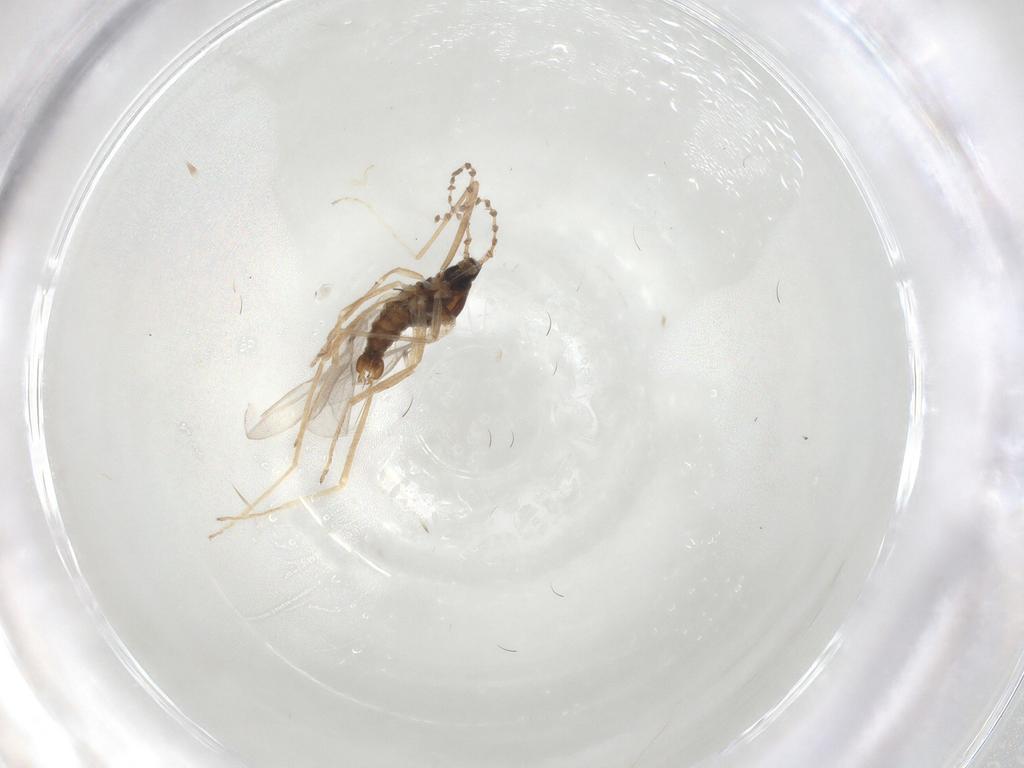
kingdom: Animalia
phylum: Arthropoda
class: Insecta
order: Diptera
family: Cecidomyiidae
